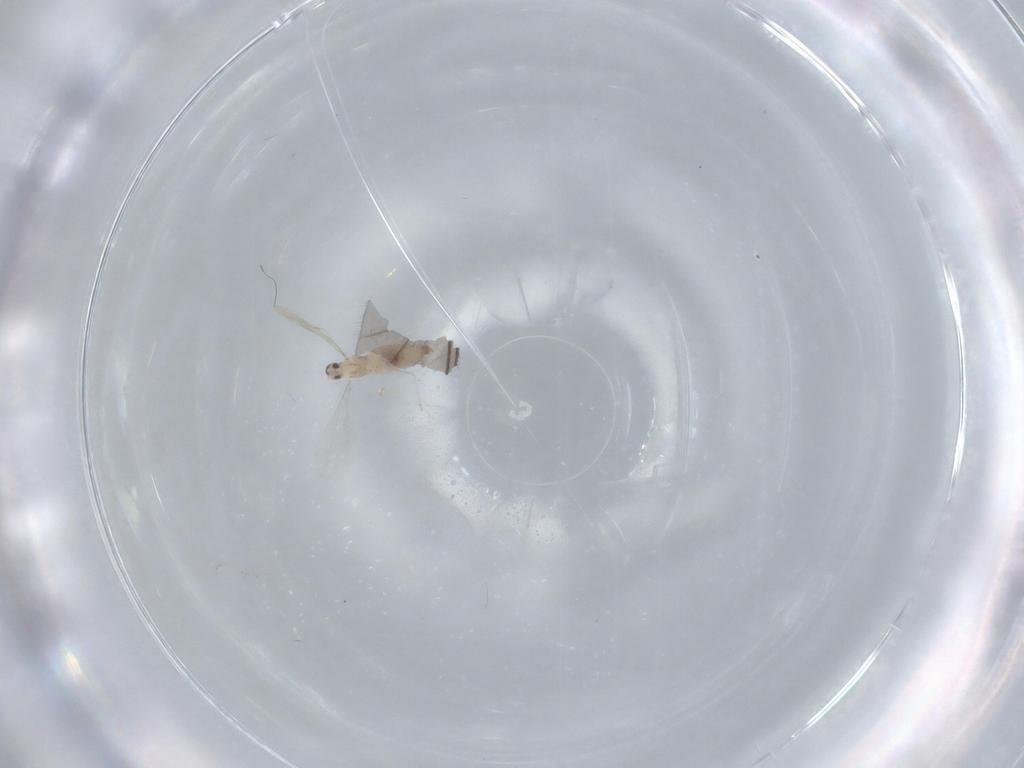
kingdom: Animalia
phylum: Arthropoda
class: Insecta
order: Diptera
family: Cecidomyiidae
